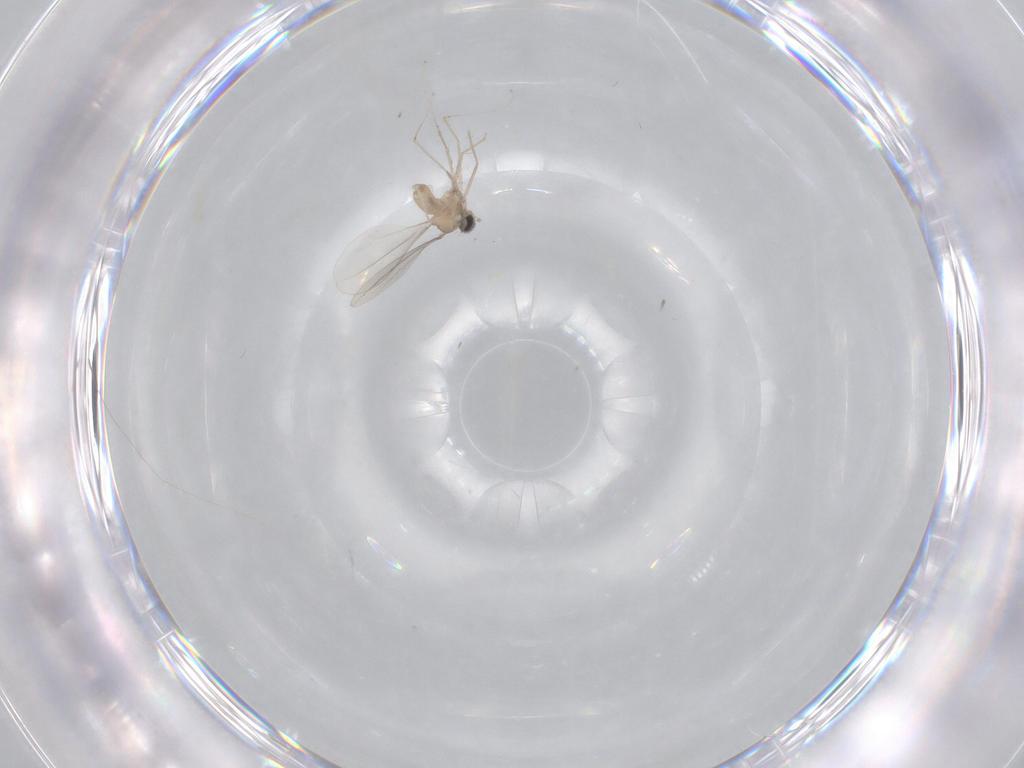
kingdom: Animalia
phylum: Arthropoda
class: Insecta
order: Diptera
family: Cecidomyiidae
